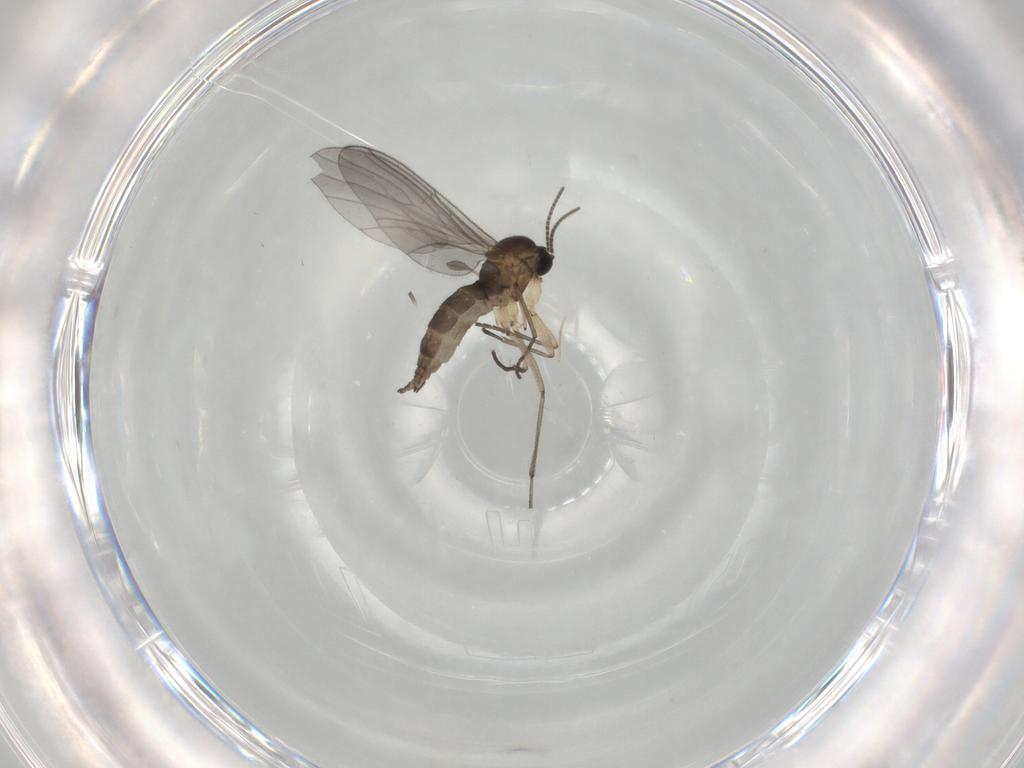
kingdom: Animalia
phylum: Arthropoda
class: Insecta
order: Diptera
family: Sciaridae
